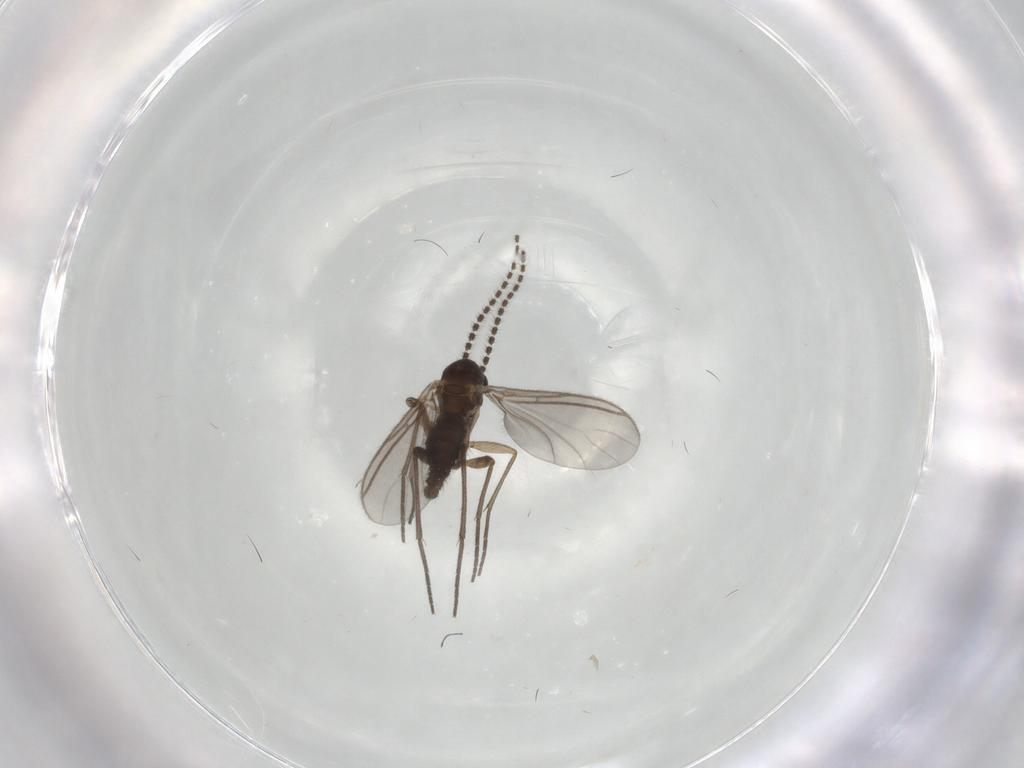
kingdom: Animalia
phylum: Arthropoda
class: Insecta
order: Diptera
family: Sciaridae
